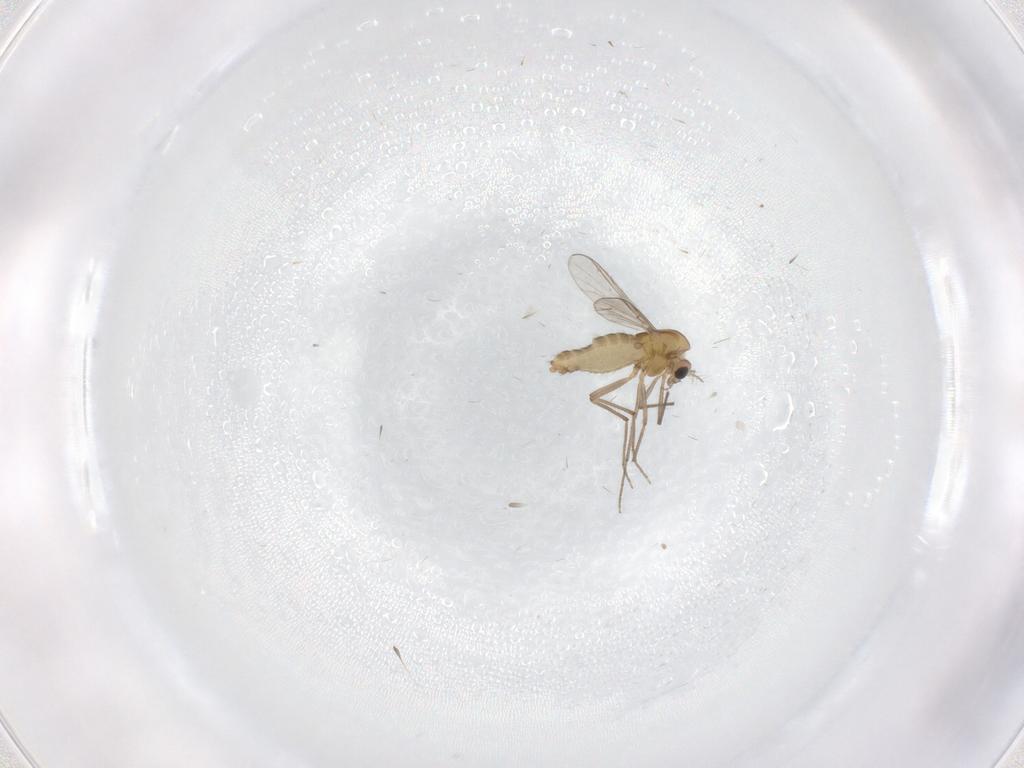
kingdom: Animalia
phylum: Arthropoda
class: Insecta
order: Diptera
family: Chironomidae
